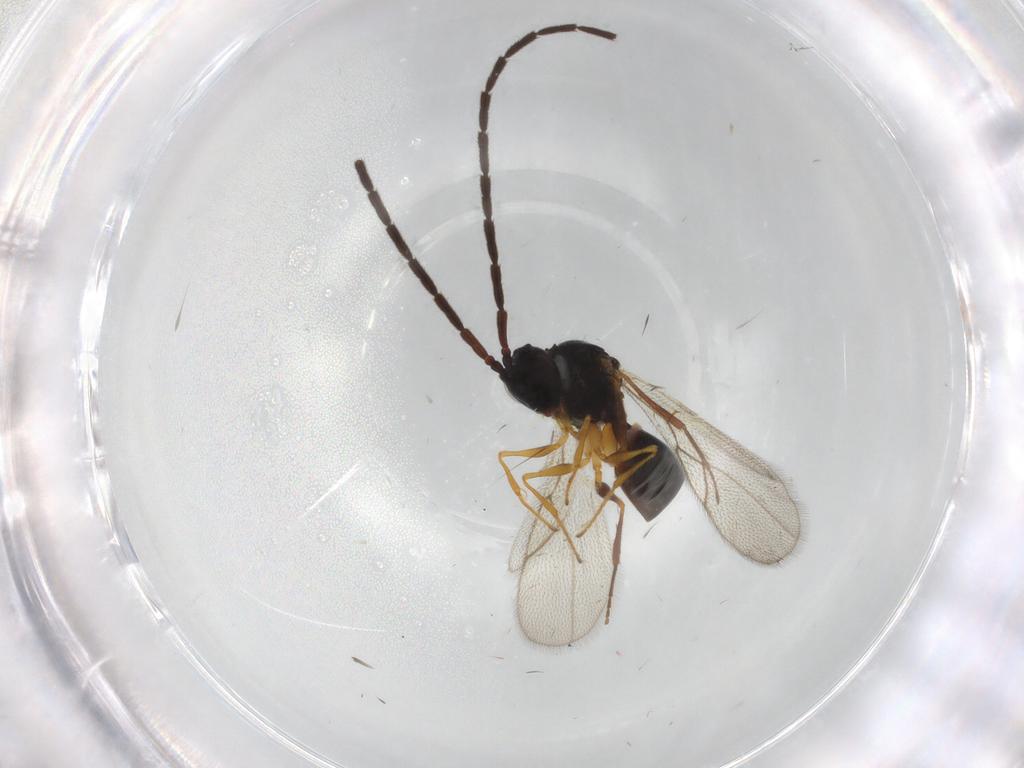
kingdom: Animalia
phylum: Arthropoda
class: Insecta
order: Hymenoptera
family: Figitidae
